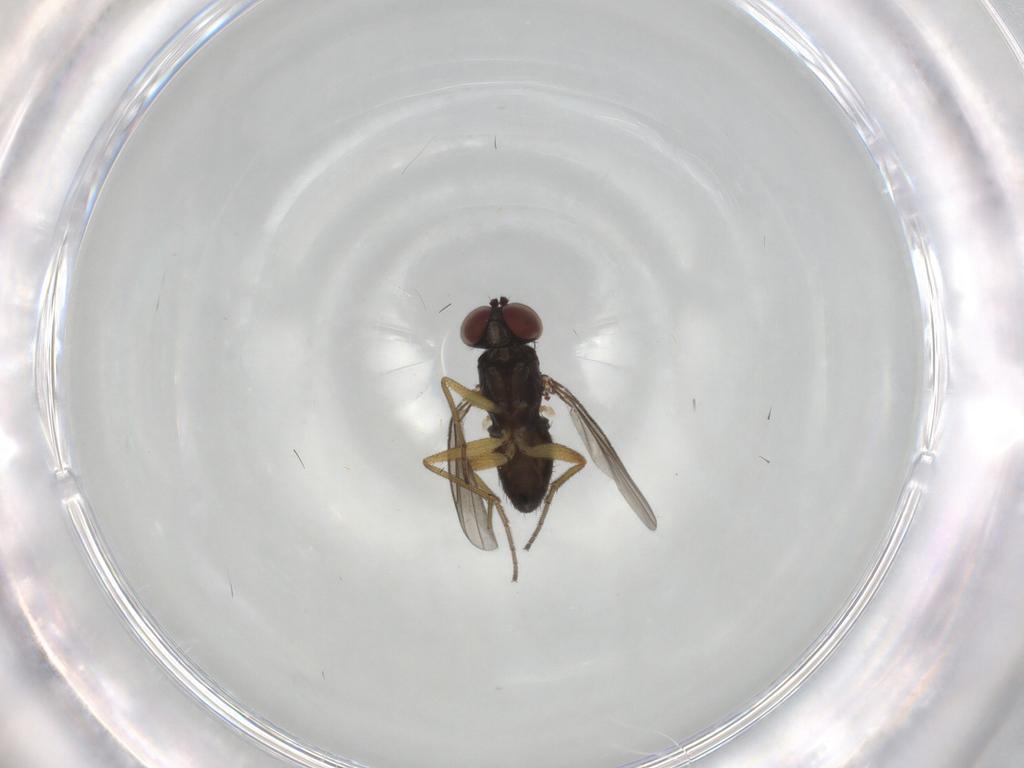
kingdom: Animalia
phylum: Arthropoda
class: Insecta
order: Diptera
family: Dolichopodidae
